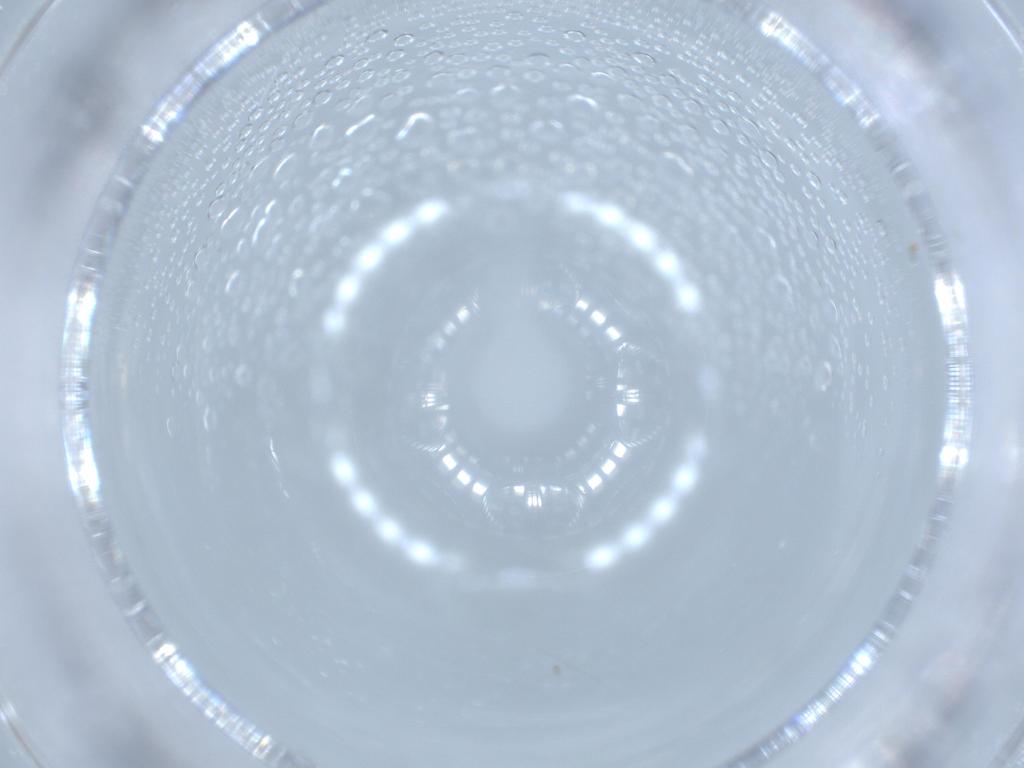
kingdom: Animalia
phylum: Arthropoda
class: Insecta
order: Diptera
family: Chironomidae
